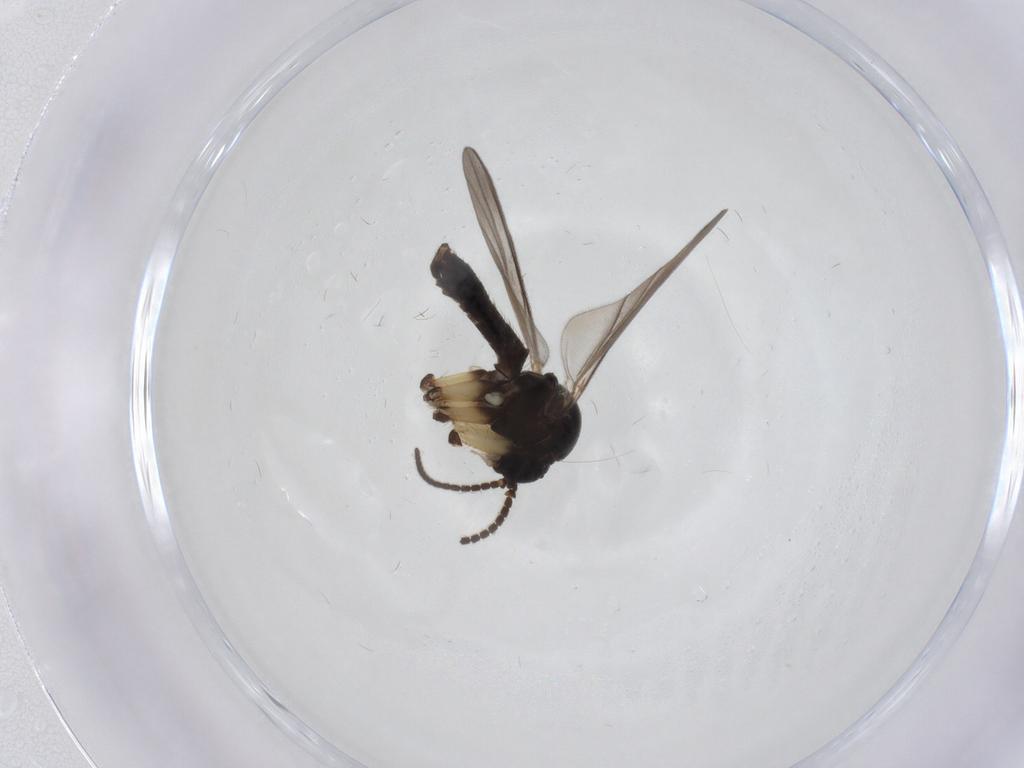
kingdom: Animalia
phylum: Arthropoda
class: Insecta
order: Diptera
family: Mycetophilidae
